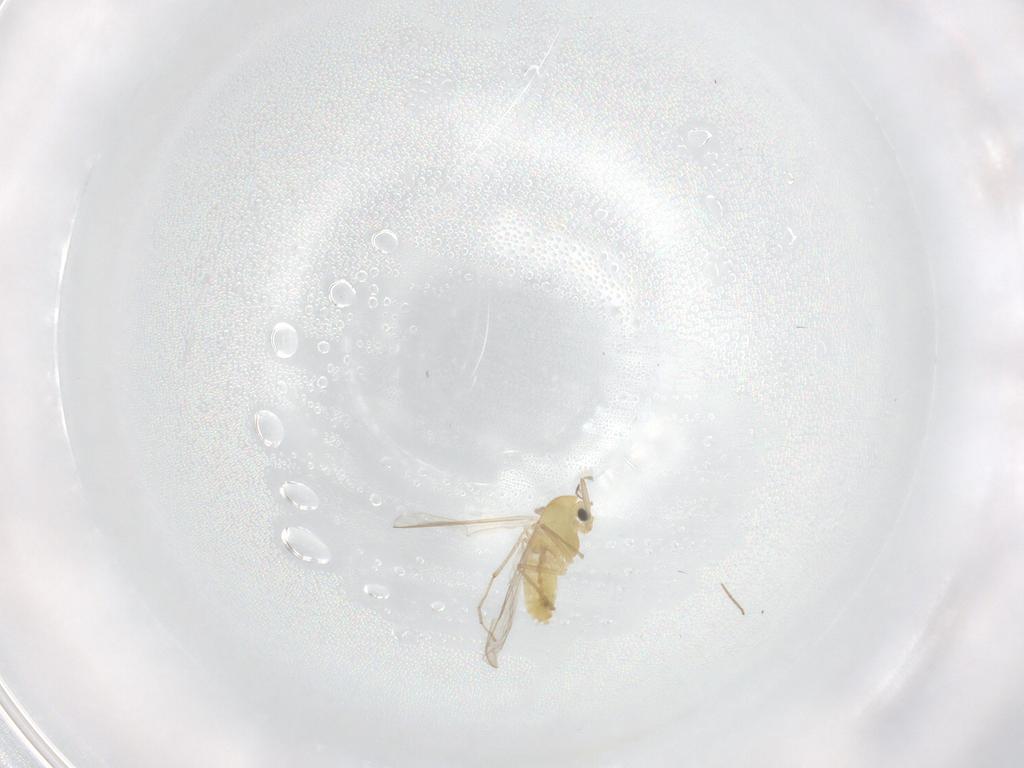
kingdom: Animalia
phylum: Arthropoda
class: Insecta
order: Diptera
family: Chironomidae
